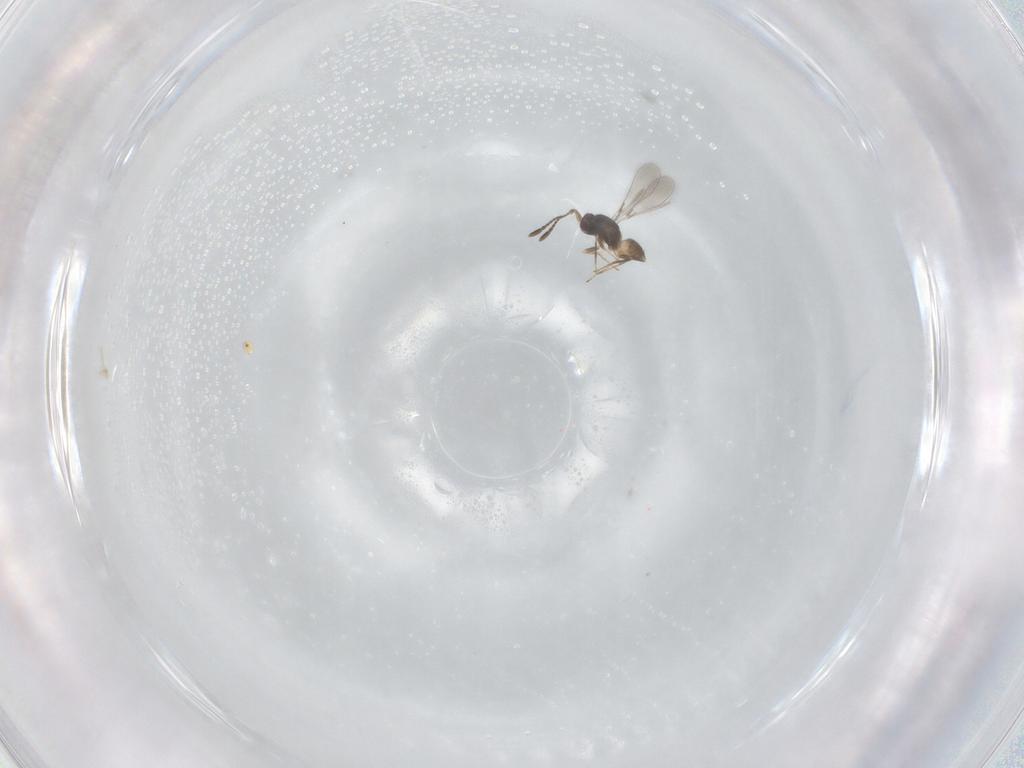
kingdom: Animalia
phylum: Arthropoda
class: Insecta
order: Hymenoptera
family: Mymaridae
